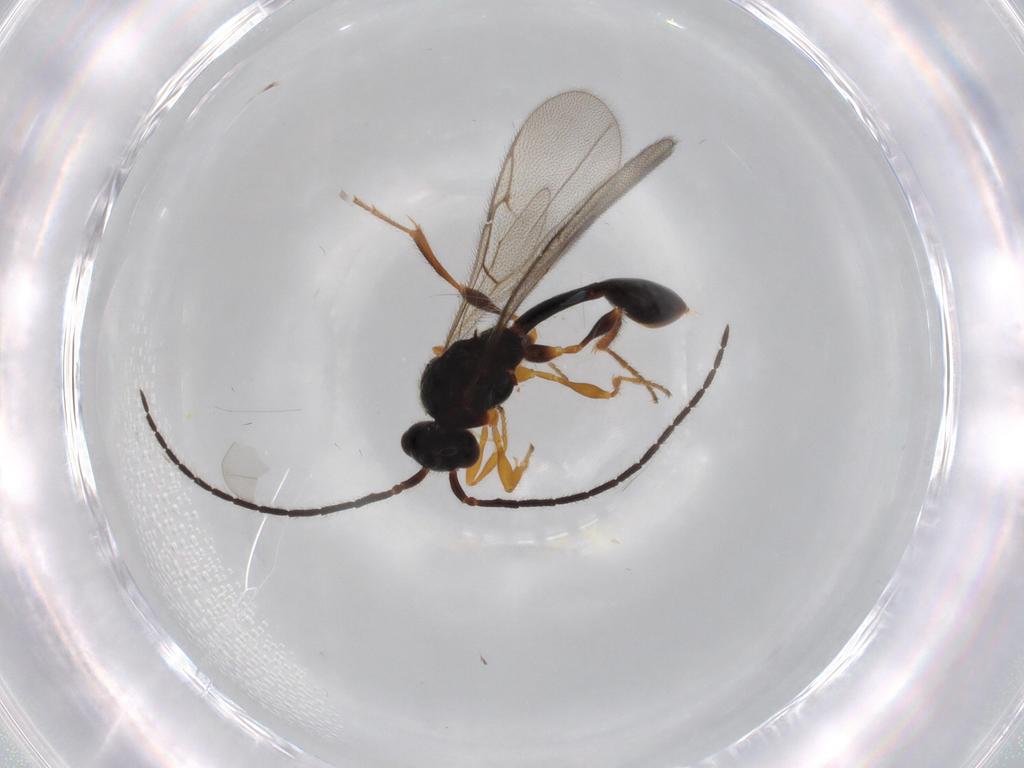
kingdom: Animalia
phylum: Arthropoda
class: Insecta
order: Hymenoptera
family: Diapriidae
